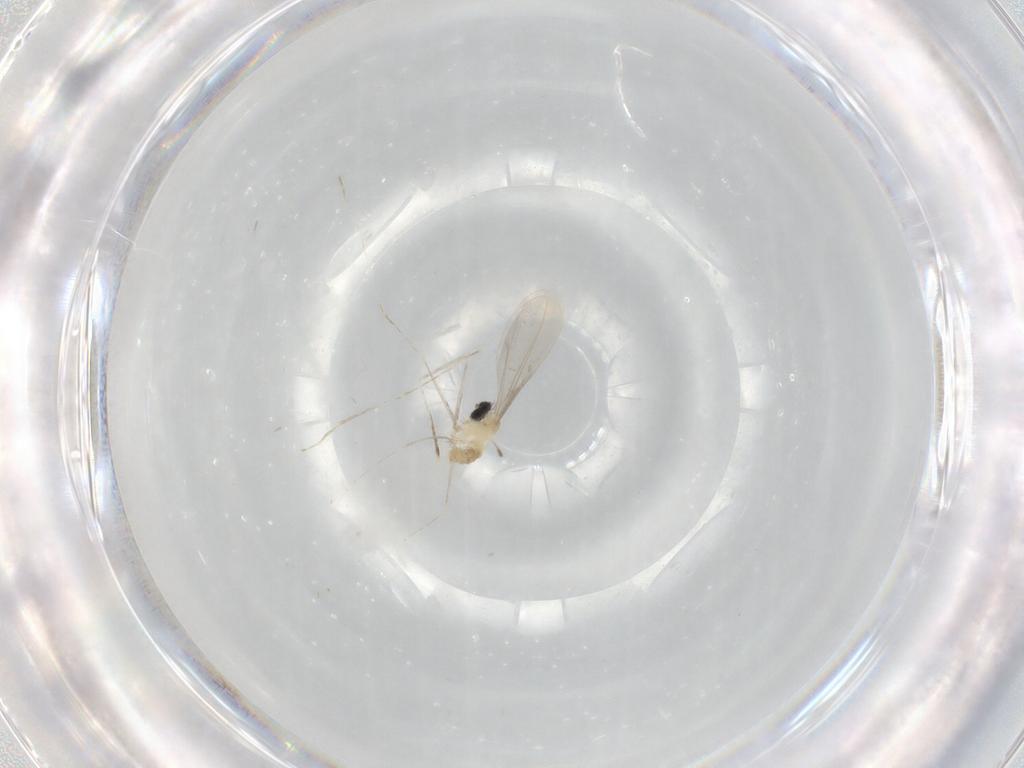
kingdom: Animalia
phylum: Arthropoda
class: Insecta
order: Diptera
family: Cecidomyiidae
